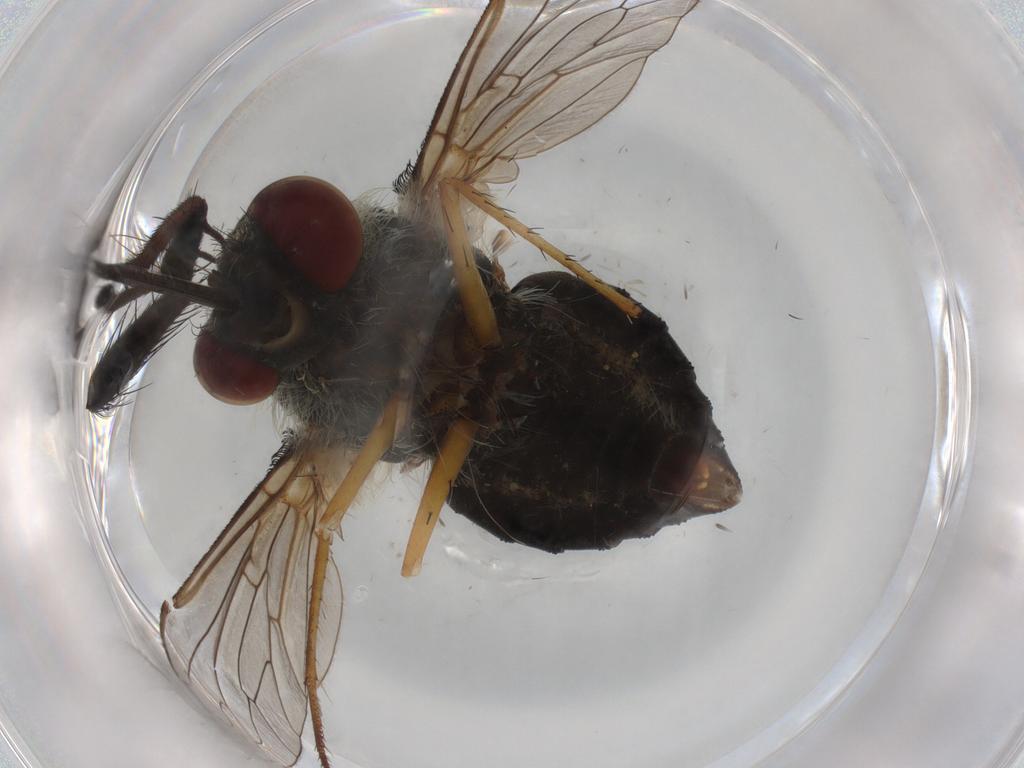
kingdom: Animalia
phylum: Arthropoda
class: Insecta
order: Diptera
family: Bombyliidae
